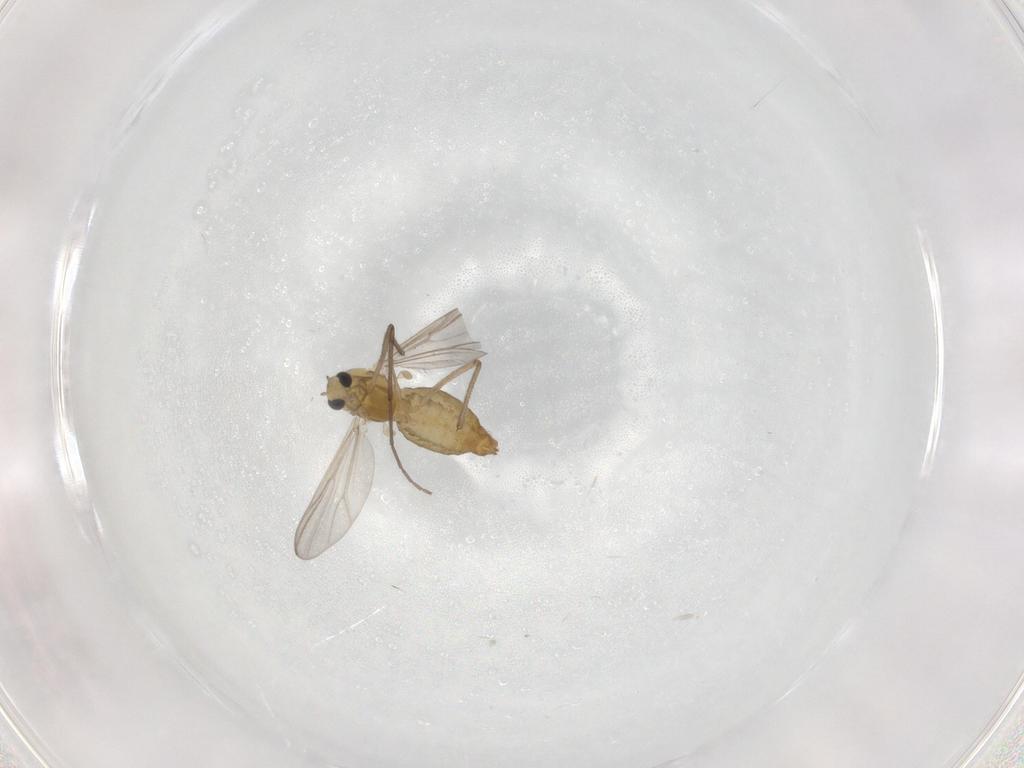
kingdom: Animalia
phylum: Arthropoda
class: Insecta
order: Diptera
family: Chironomidae
